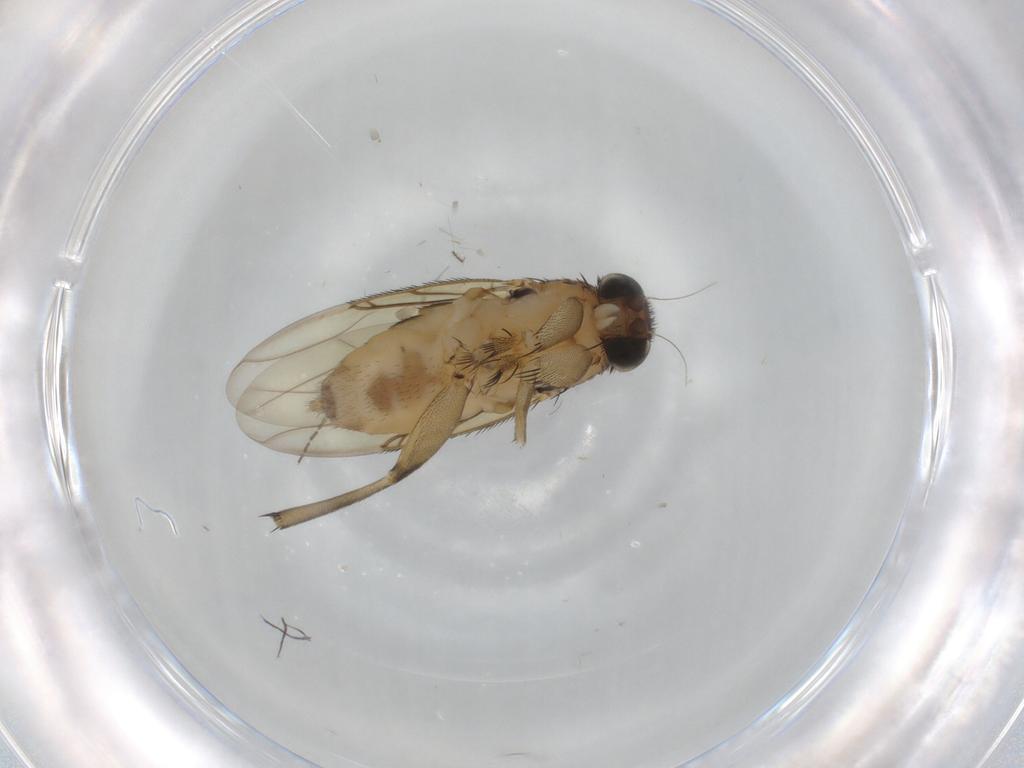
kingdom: Animalia
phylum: Arthropoda
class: Insecta
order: Diptera
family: Phoridae
